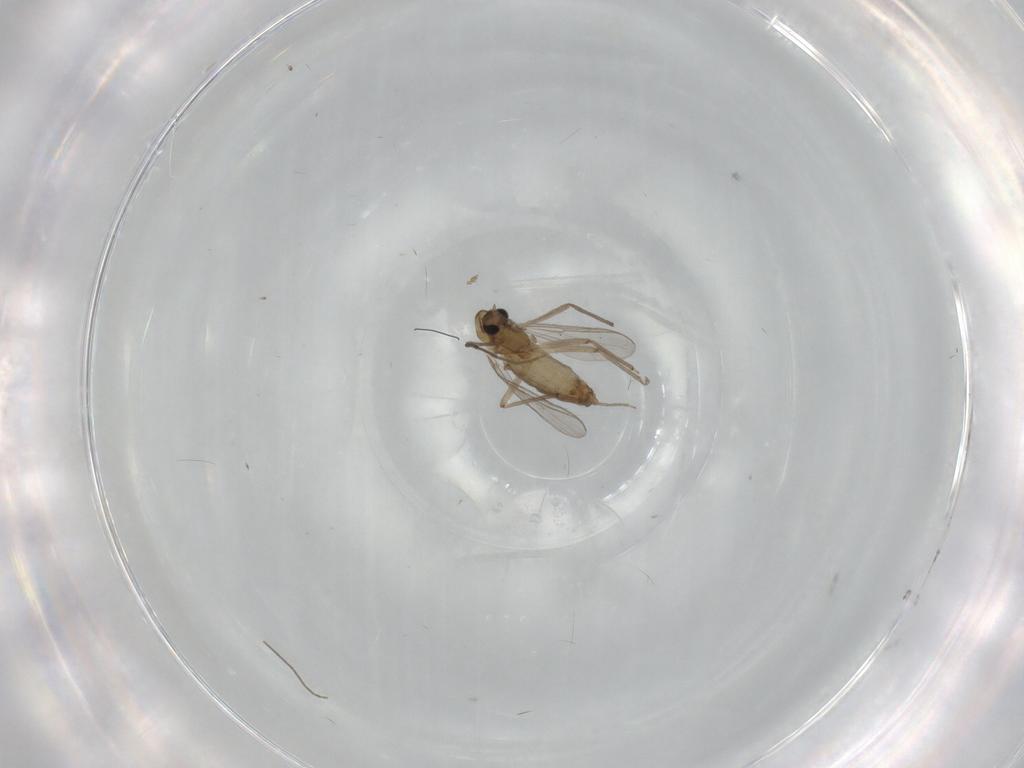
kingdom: Animalia
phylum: Arthropoda
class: Insecta
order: Diptera
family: Chironomidae
